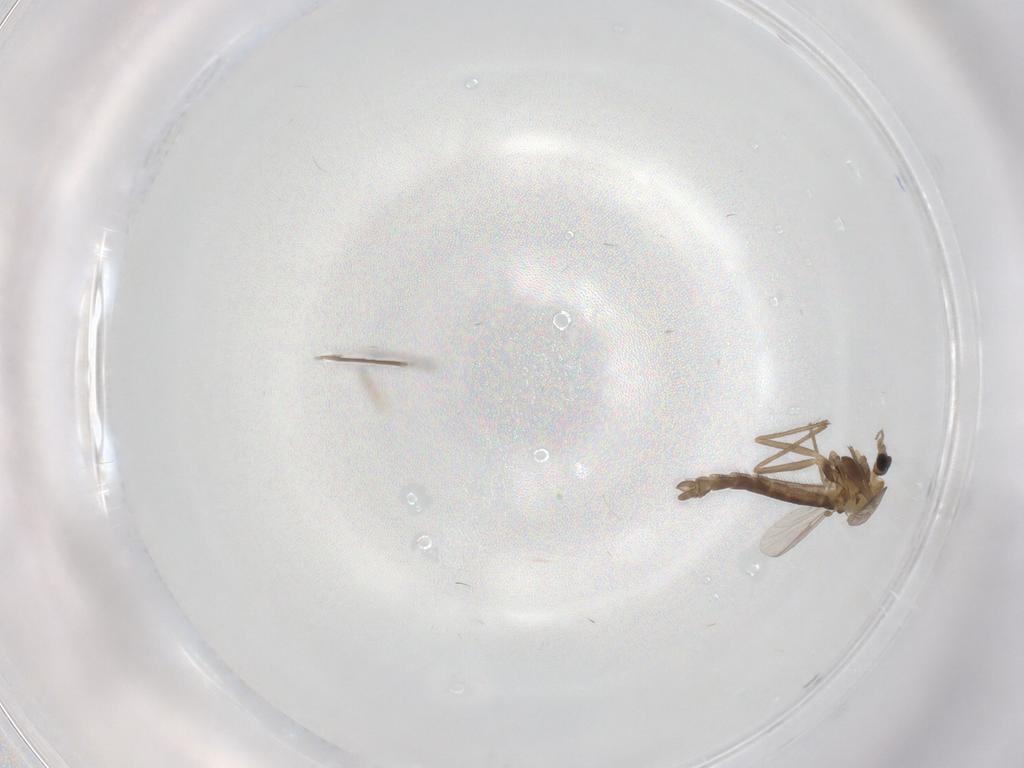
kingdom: Animalia
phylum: Arthropoda
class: Insecta
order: Diptera
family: Chironomidae
